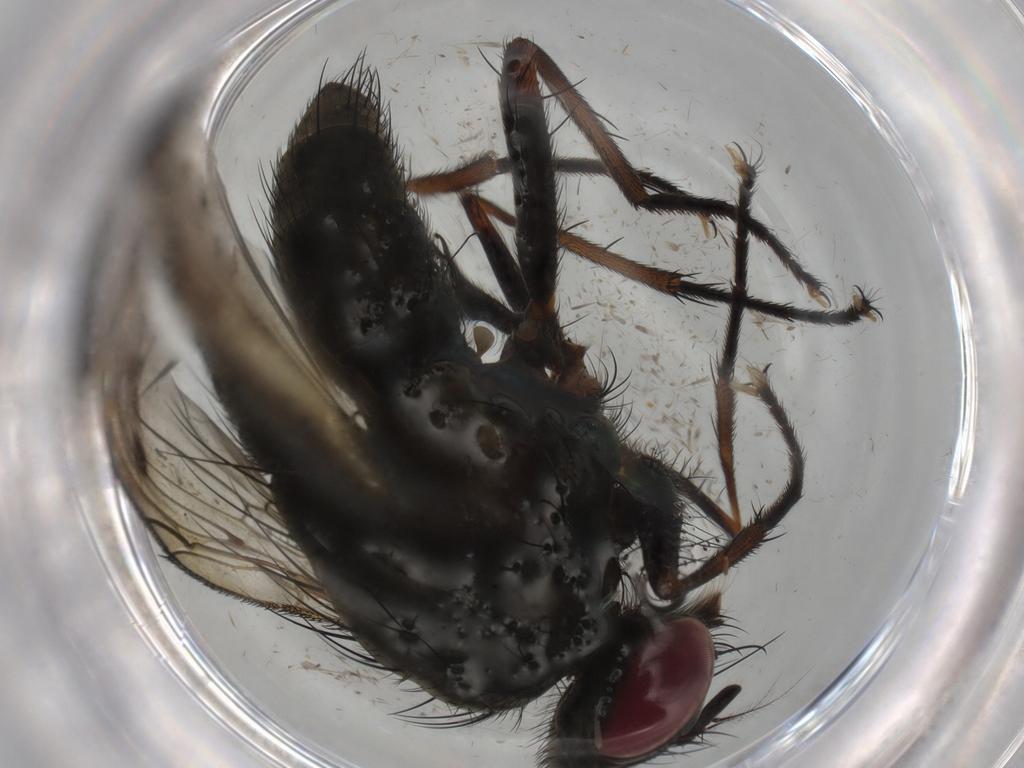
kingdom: Animalia
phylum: Arthropoda
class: Insecta
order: Diptera
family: Muscidae
